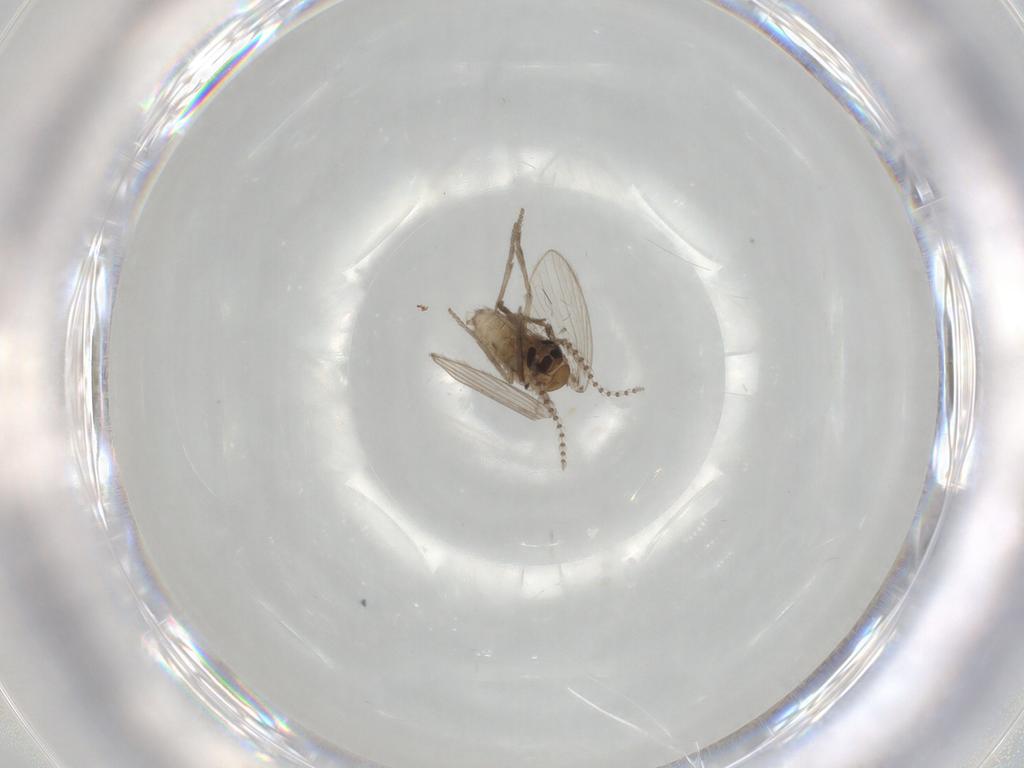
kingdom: Animalia
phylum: Arthropoda
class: Insecta
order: Diptera
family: Psychodidae
